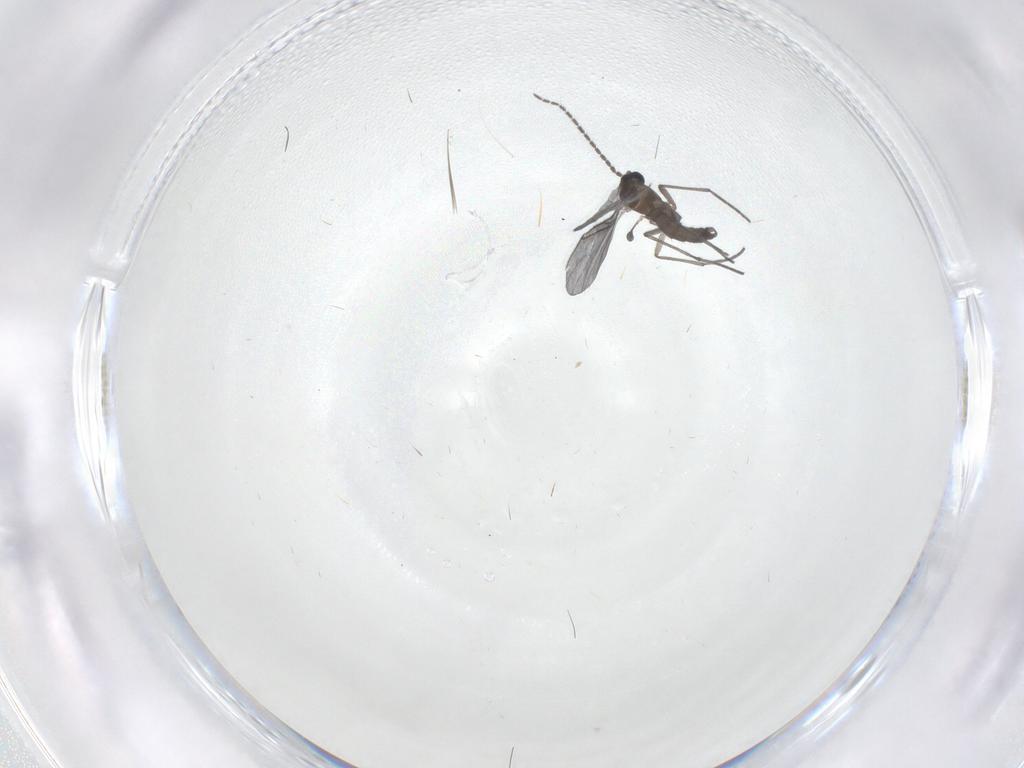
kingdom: Animalia
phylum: Arthropoda
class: Insecta
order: Diptera
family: Sciaridae
